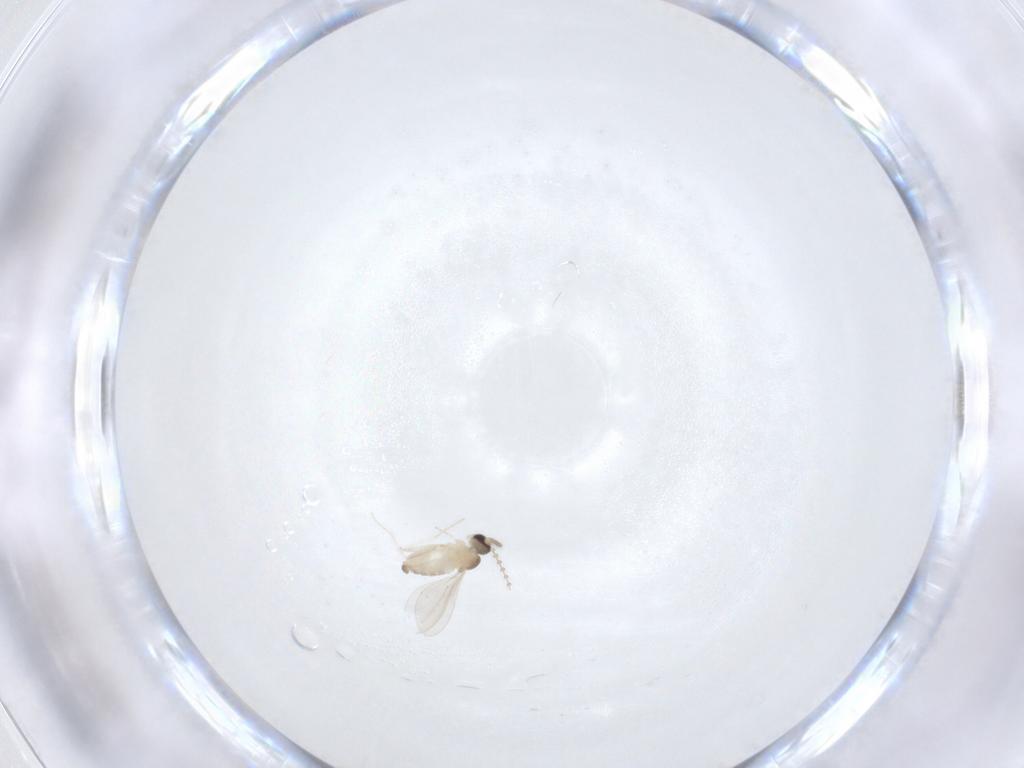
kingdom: Animalia
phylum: Arthropoda
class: Insecta
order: Diptera
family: Cecidomyiidae
